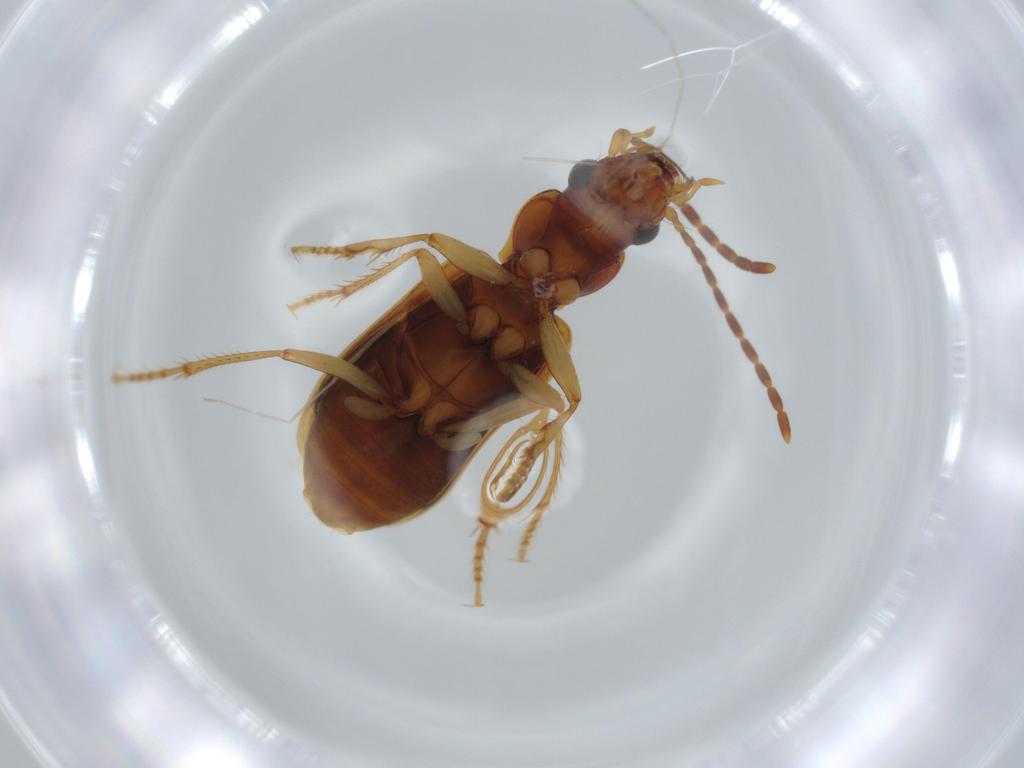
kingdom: Animalia
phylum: Arthropoda
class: Insecta
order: Coleoptera
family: Carabidae
